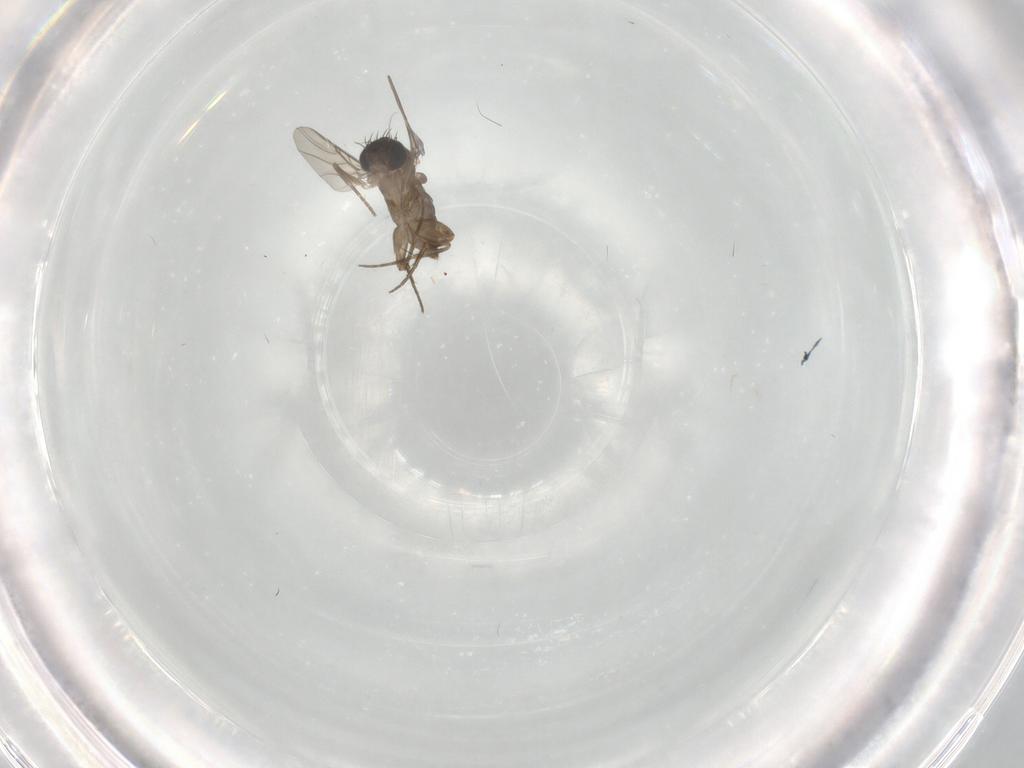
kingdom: Animalia
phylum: Arthropoda
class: Insecta
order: Diptera
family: Phoridae
